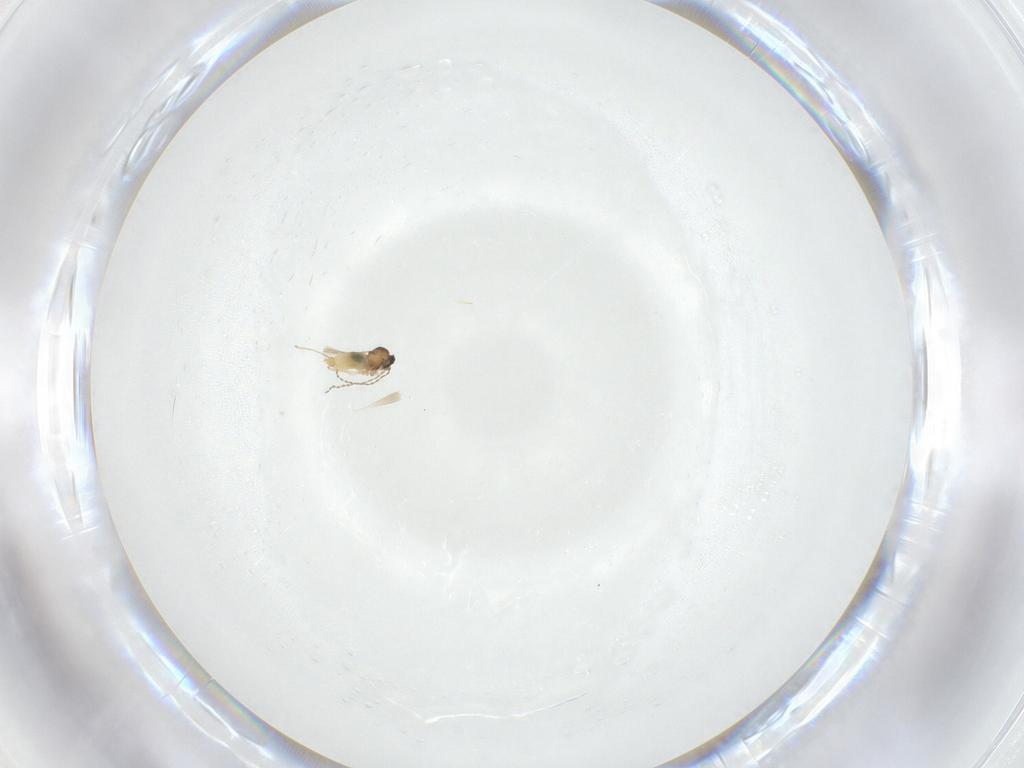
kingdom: Animalia
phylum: Arthropoda
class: Insecta
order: Diptera
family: Cecidomyiidae
